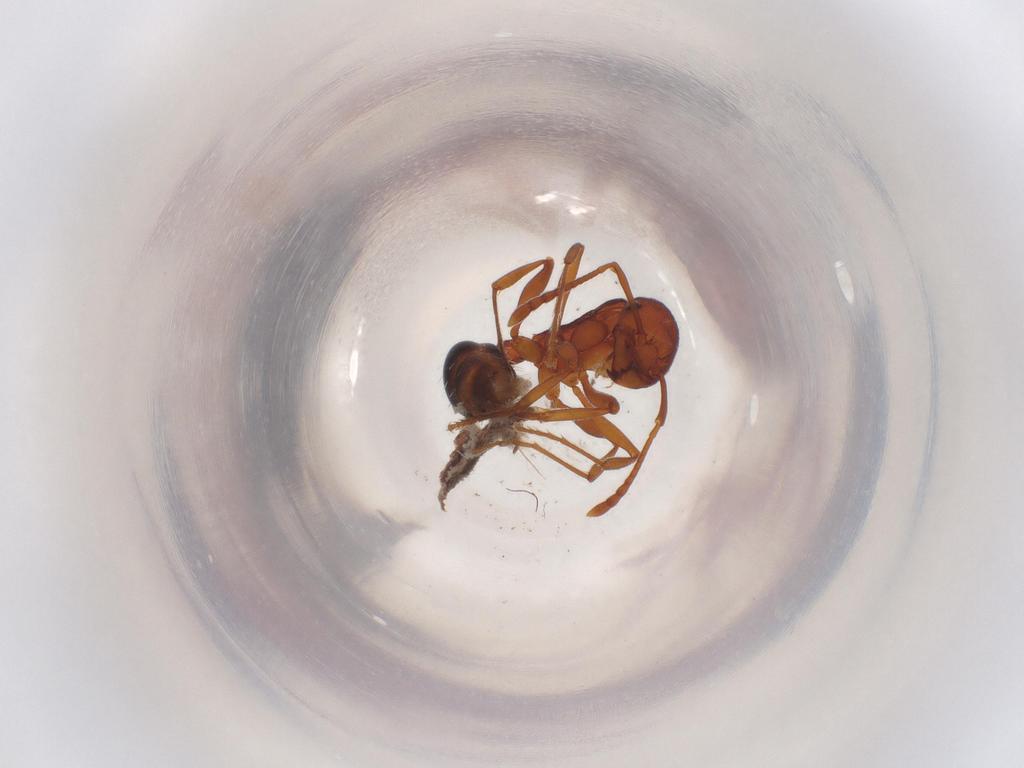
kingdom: Animalia
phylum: Arthropoda
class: Insecta
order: Hymenoptera
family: Formicidae
